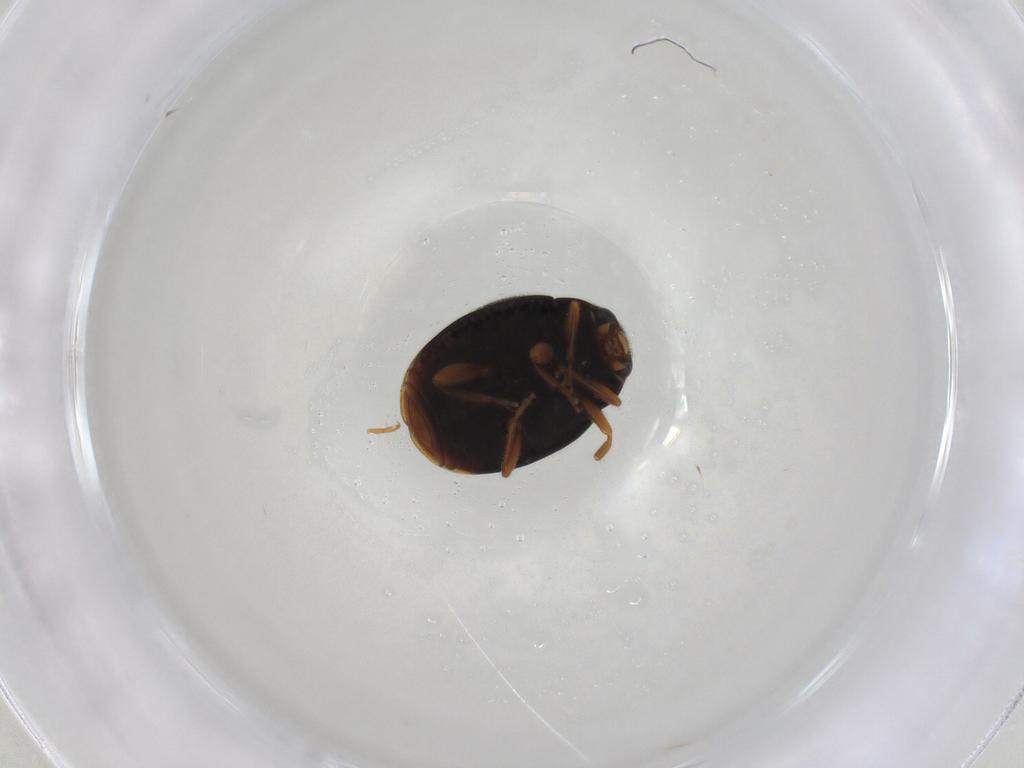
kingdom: Animalia
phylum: Arthropoda
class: Insecta
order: Coleoptera
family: Coccinellidae
